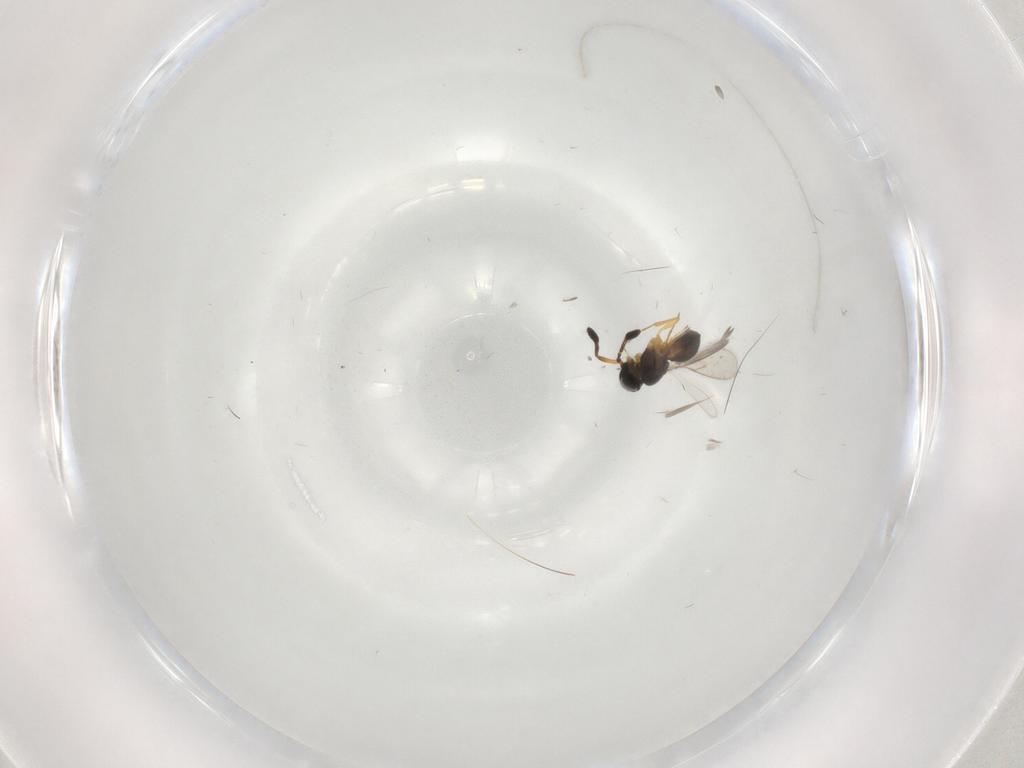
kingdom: Animalia
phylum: Arthropoda
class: Insecta
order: Hymenoptera
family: Scelionidae
